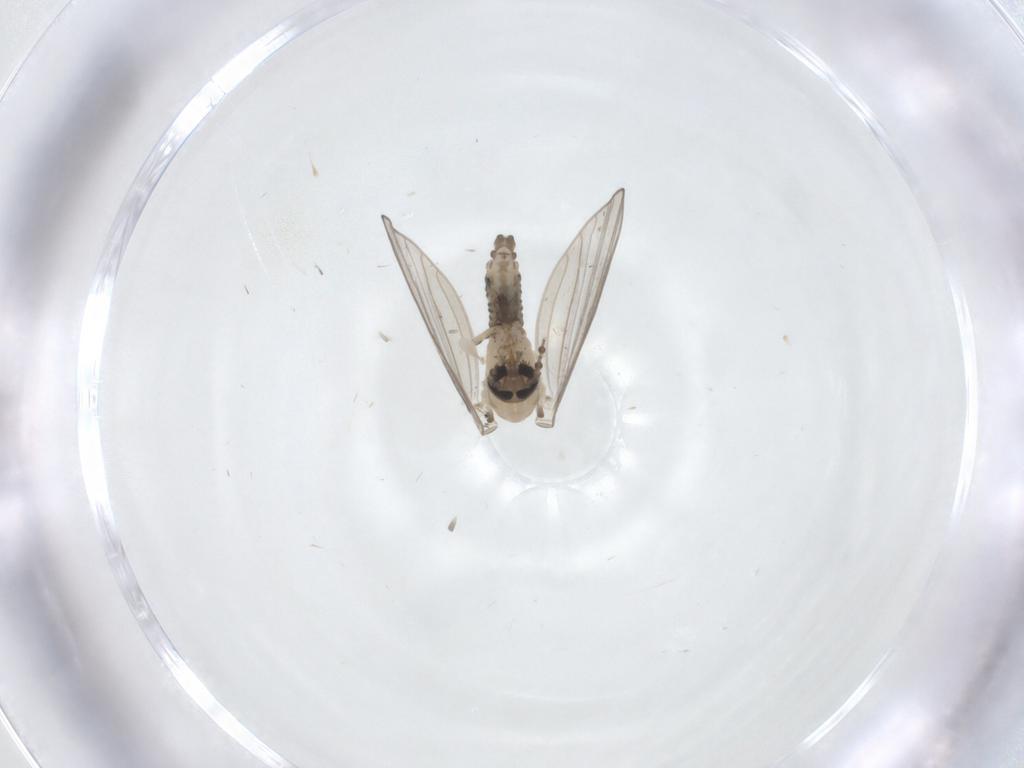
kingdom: Animalia
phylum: Arthropoda
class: Insecta
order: Diptera
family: Psychodidae
